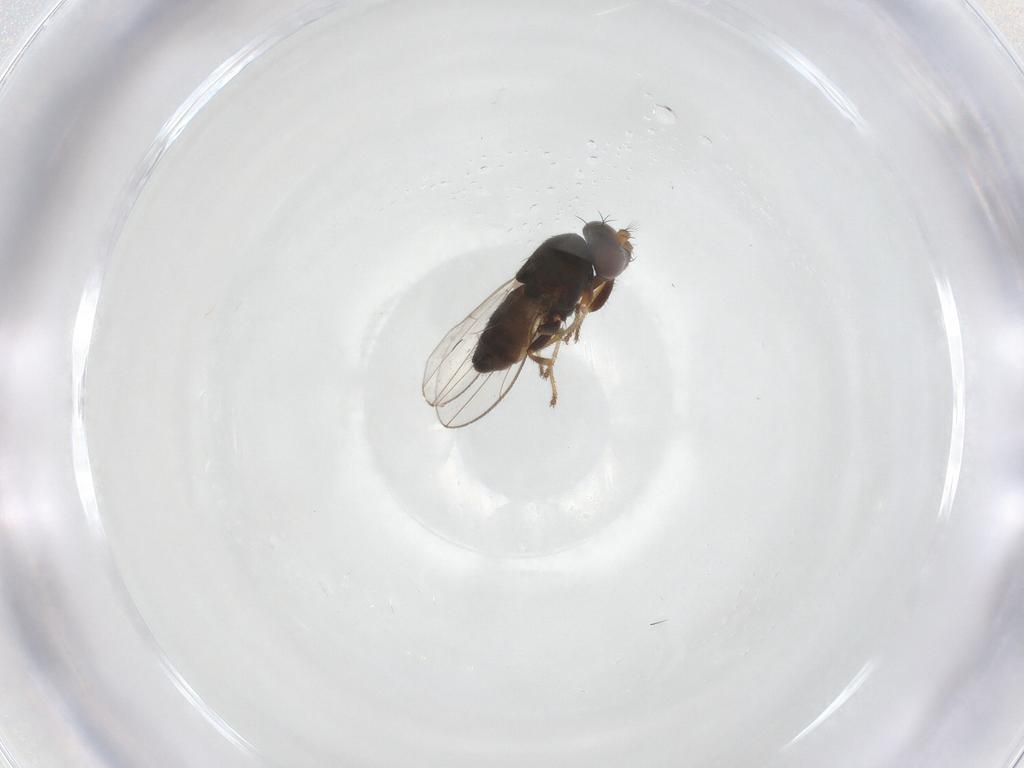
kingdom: Animalia
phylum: Arthropoda
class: Insecta
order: Diptera
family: Ephydridae
